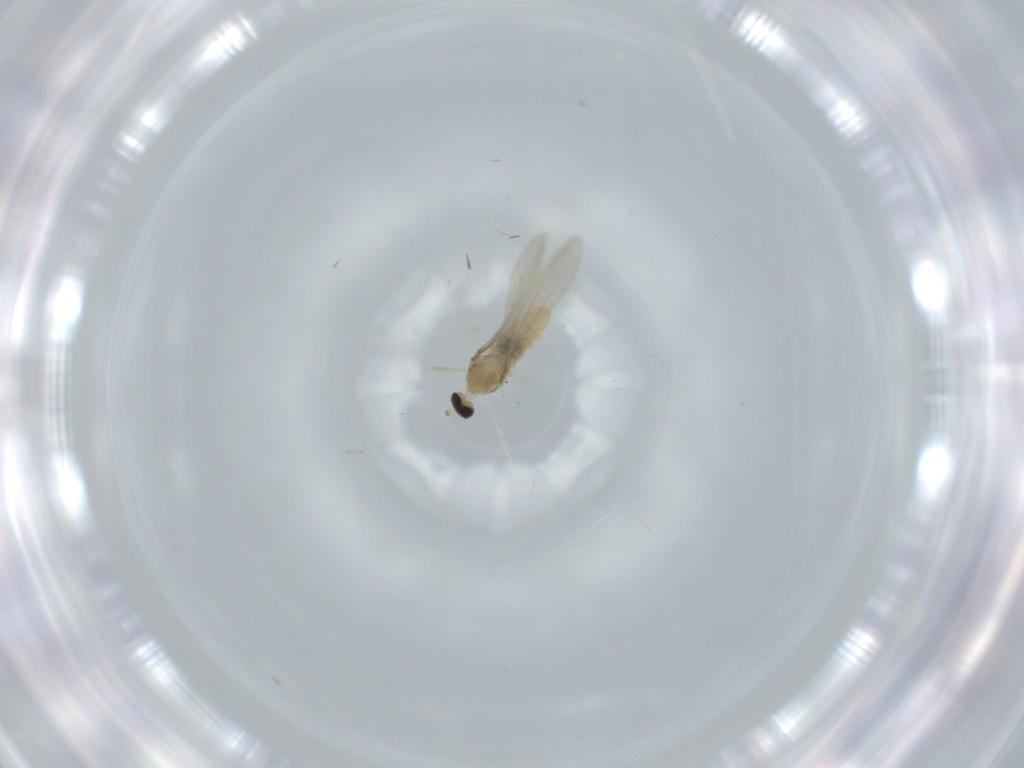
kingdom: Animalia
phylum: Arthropoda
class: Insecta
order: Diptera
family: Cecidomyiidae
